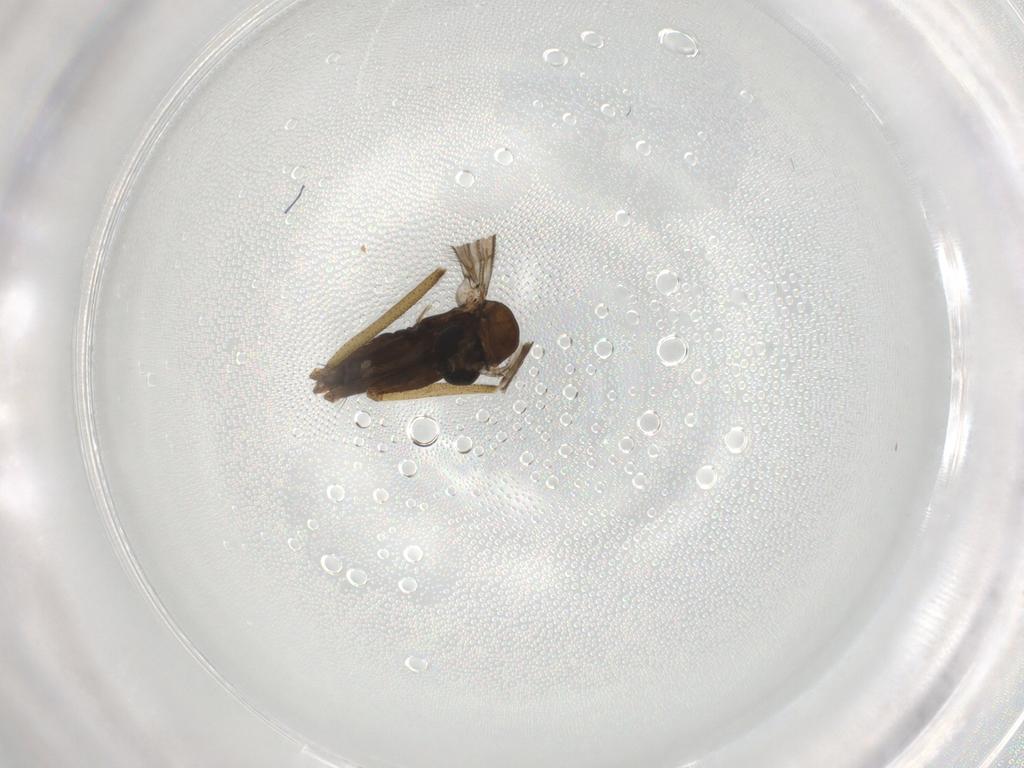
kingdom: Animalia
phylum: Arthropoda
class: Insecta
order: Diptera
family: Sciaridae
